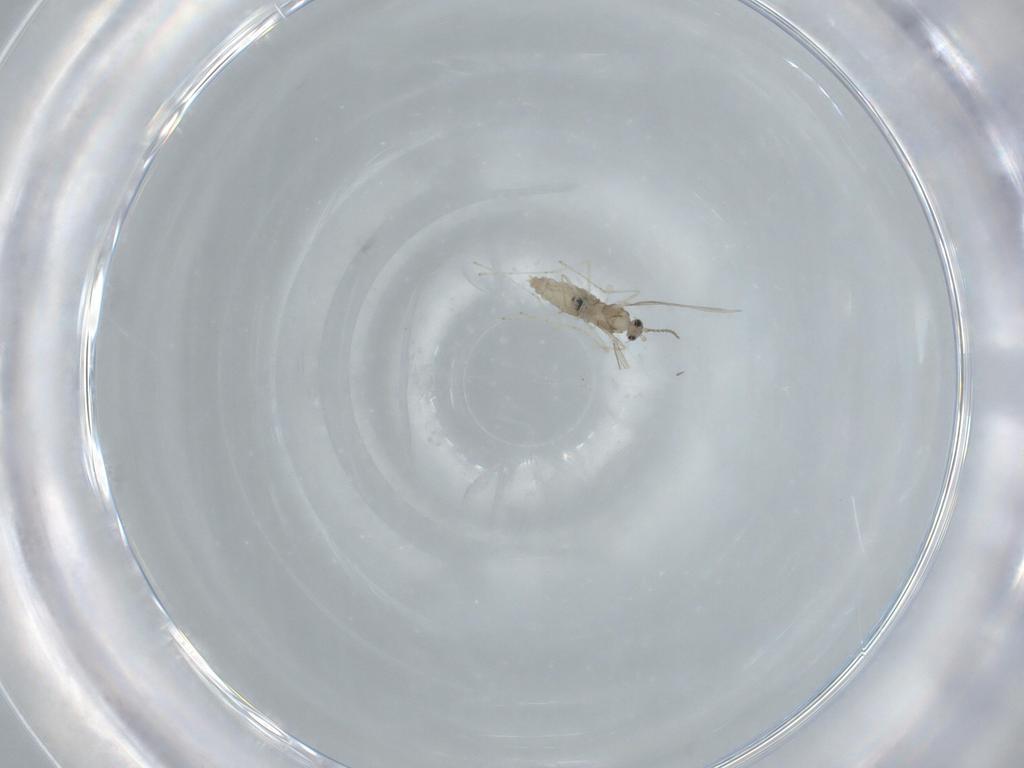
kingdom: Animalia
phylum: Arthropoda
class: Insecta
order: Diptera
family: Cecidomyiidae
